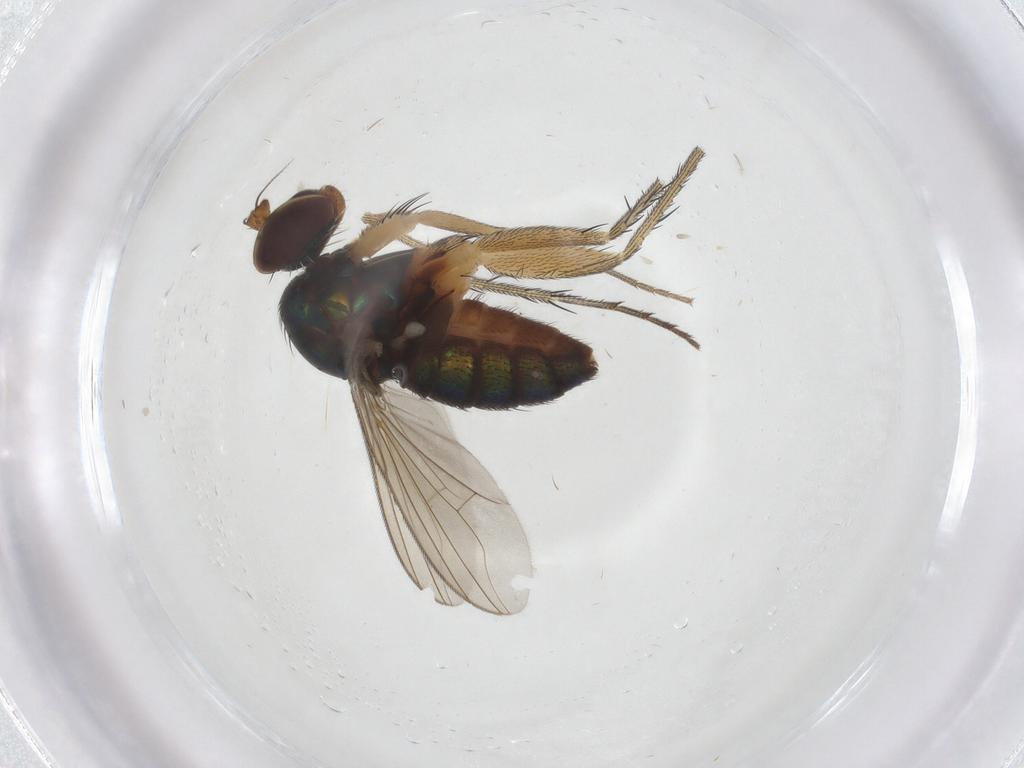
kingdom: Animalia
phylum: Arthropoda
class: Insecta
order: Diptera
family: Dolichopodidae
